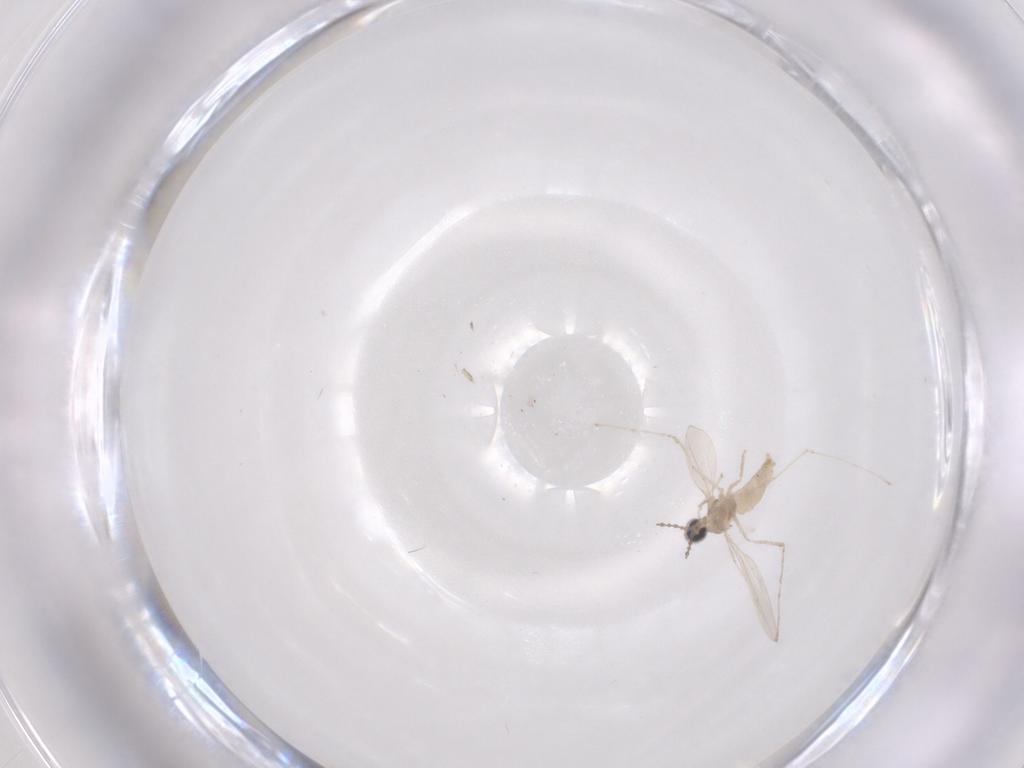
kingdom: Animalia
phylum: Arthropoda
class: Insecta
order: Diptera
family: Cecidomyiidae
